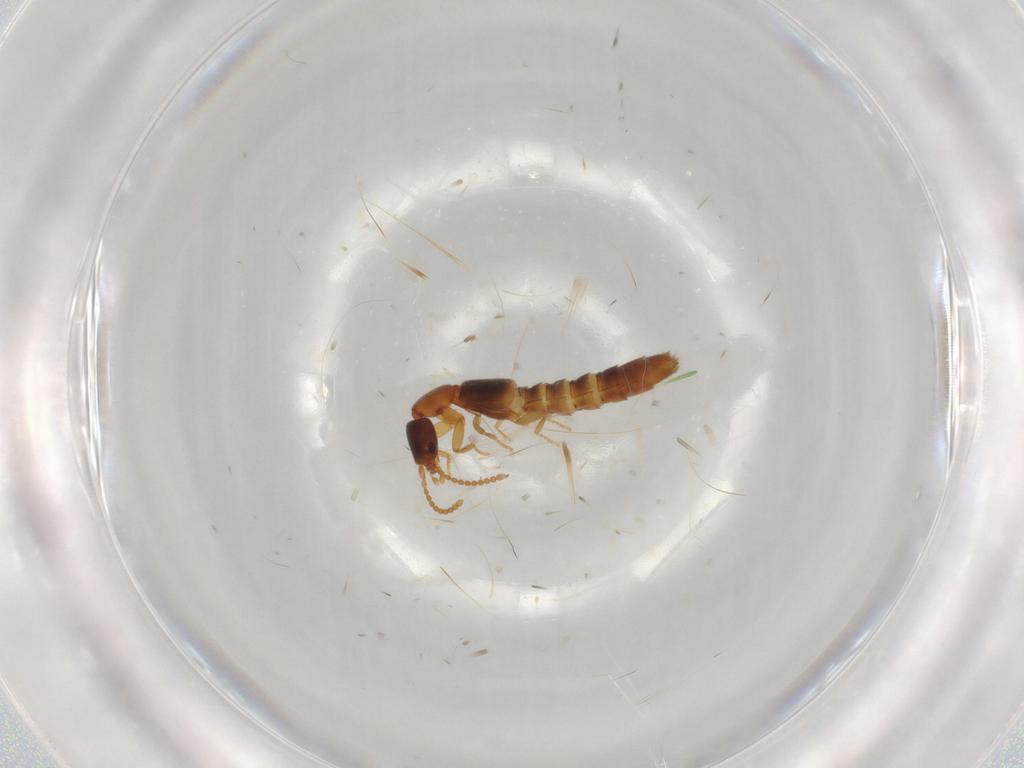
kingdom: Animalia
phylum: Arthropoda
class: Insecta
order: Coleoptera
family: Staphylinidae
